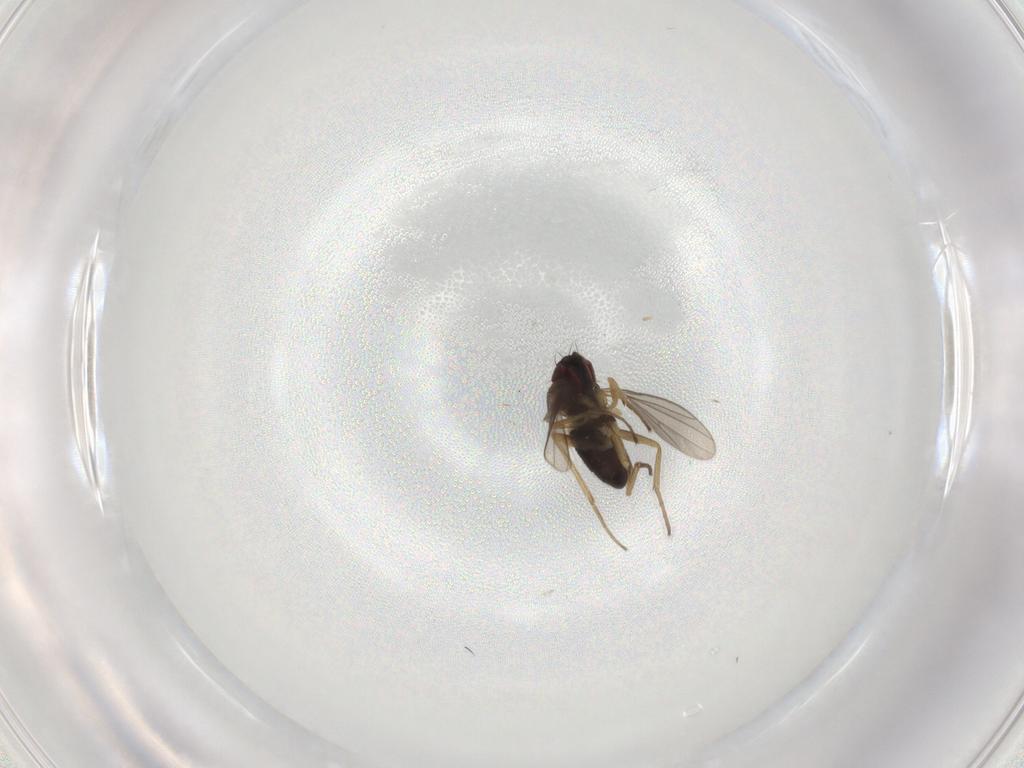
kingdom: Animalia
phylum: Arthropoda
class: Insecta
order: Diptera
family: Dolichopodidae
